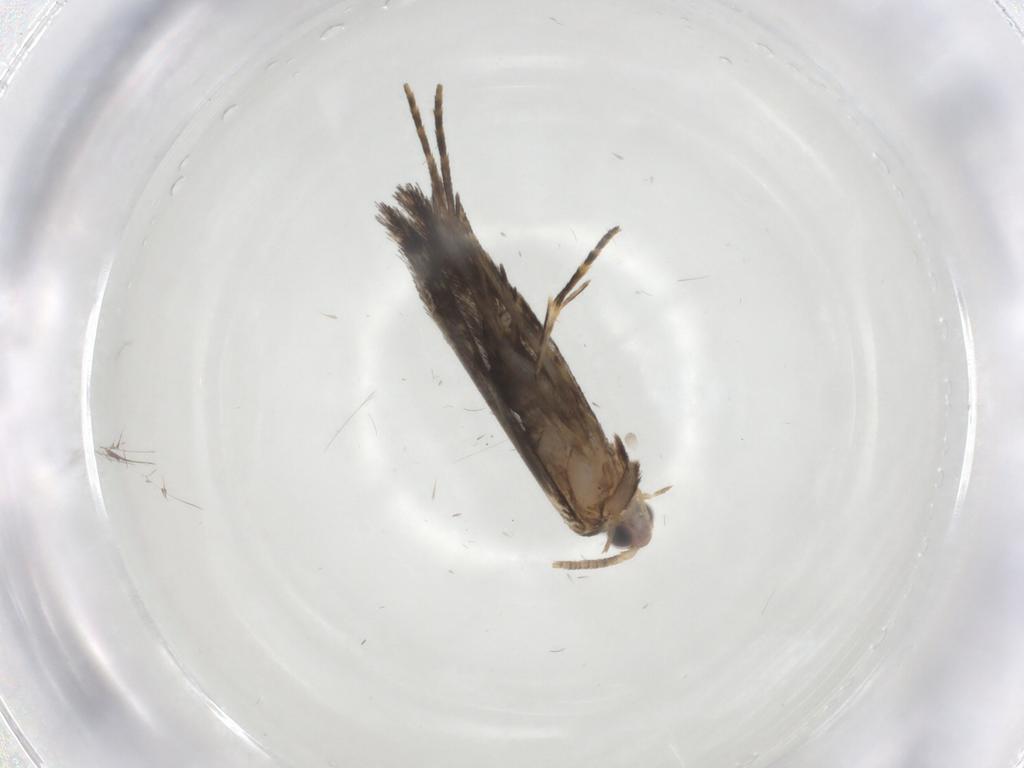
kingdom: Animalia
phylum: Arthropoda
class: Insecta
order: Lepidoptera
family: Tineidae
